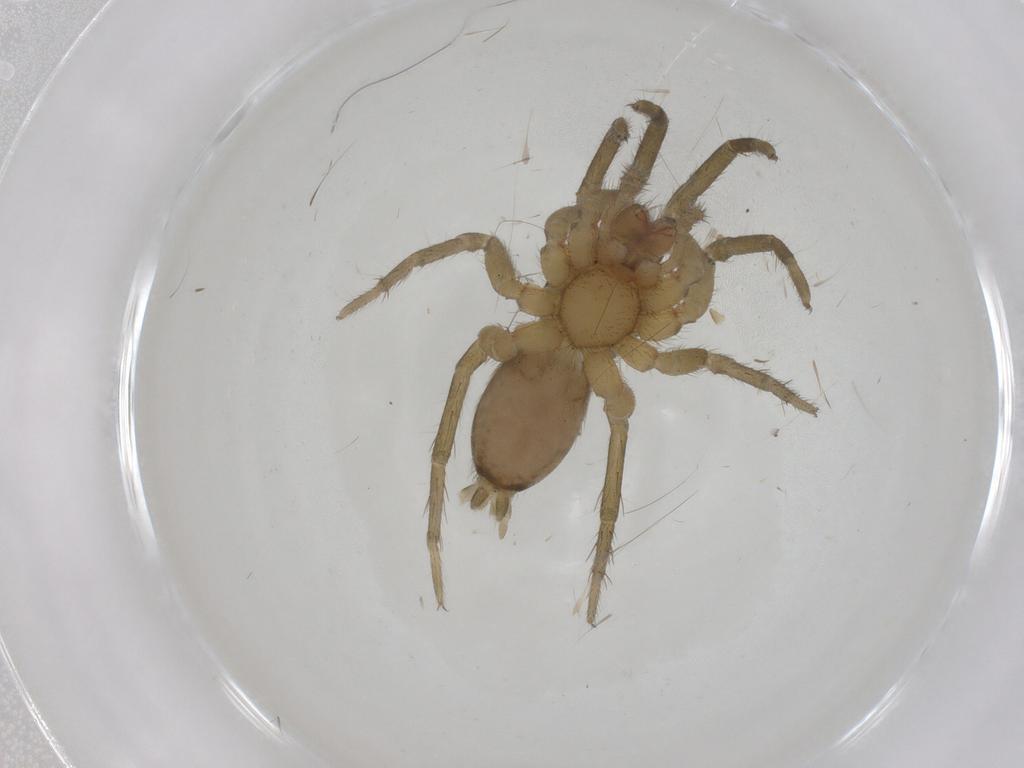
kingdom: Animalia
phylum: Arthropoda
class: Arachnida
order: Araneae
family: Miturgidae
